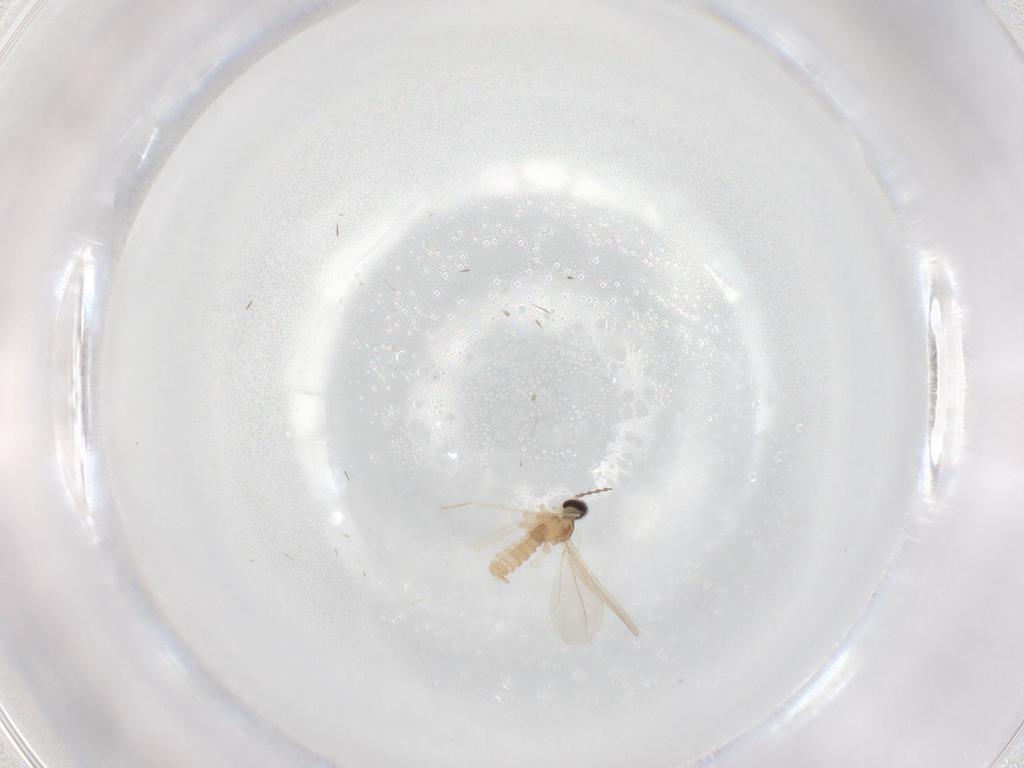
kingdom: Animalia
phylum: Arthropoda
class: Insecta
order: Diptera
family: Cecidomyiidae
